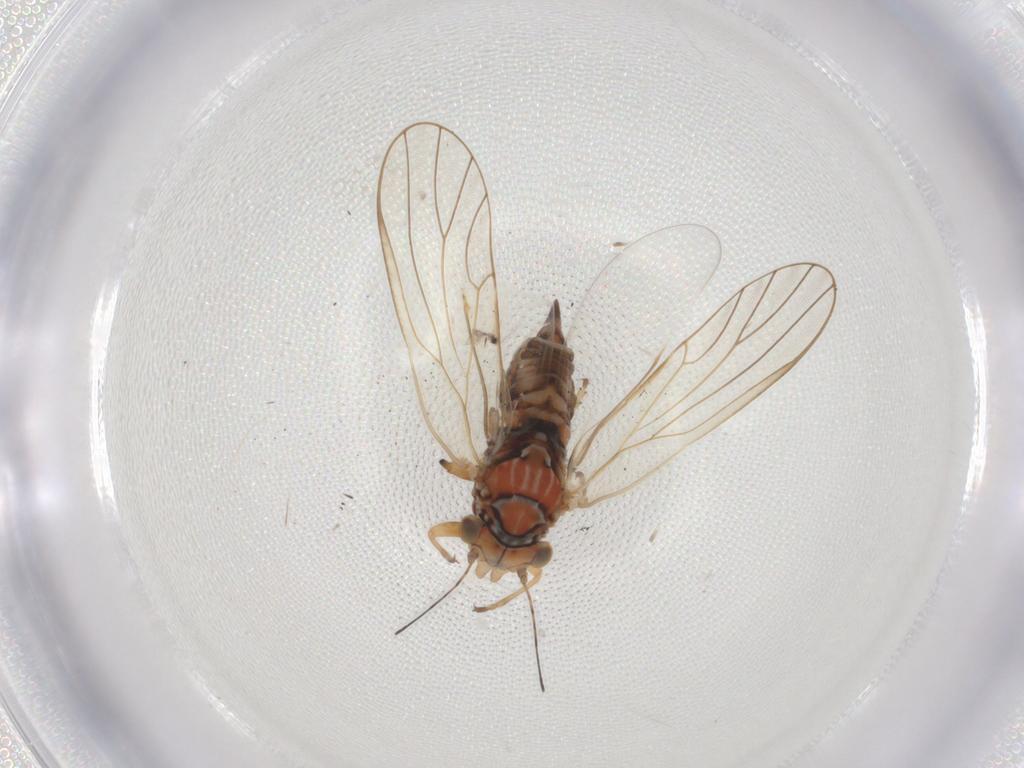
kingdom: Animalia
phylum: Arthropoda
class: Insecta
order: Hemiptera
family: Psyllidae
